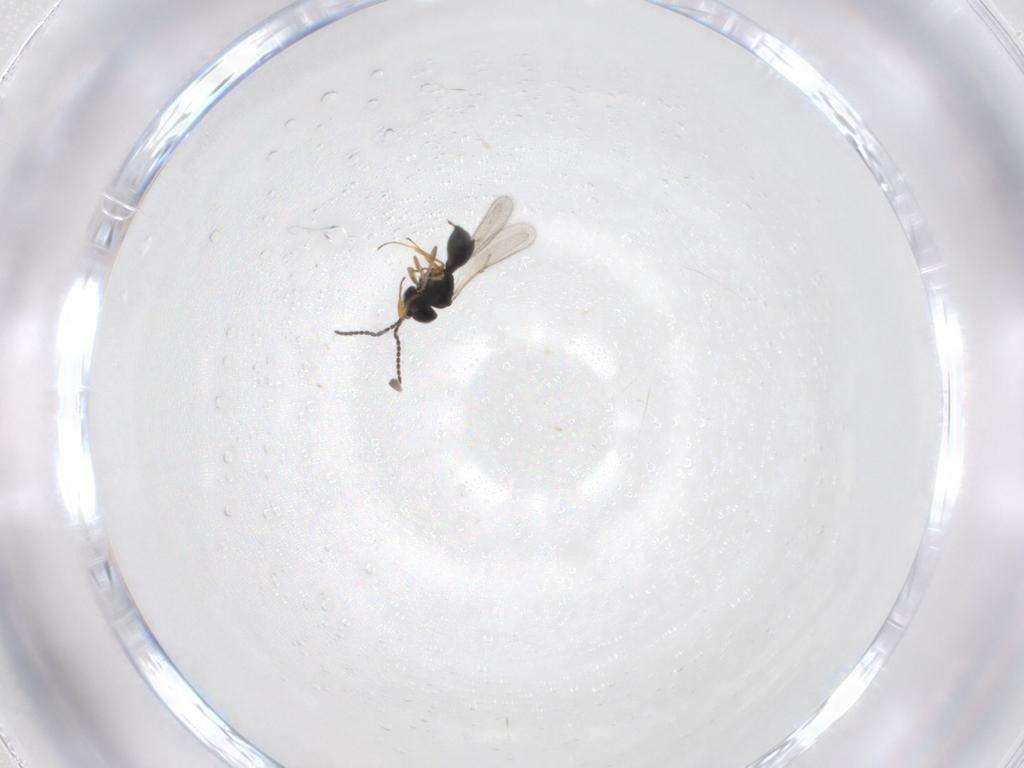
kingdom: Animalia
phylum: Arthropoda
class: Insecta
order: Hymenoptera
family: Scelionidae
